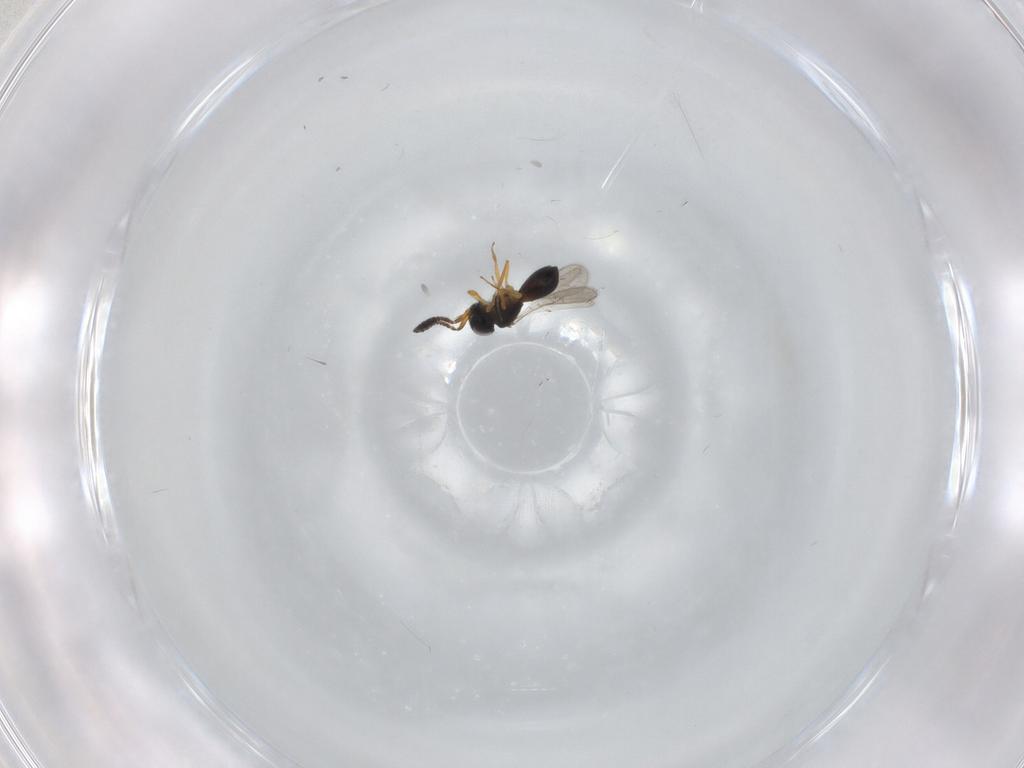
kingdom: Animalia
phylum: Arthropoda
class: Insecta
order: Hymenoptera
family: Scelionidae
